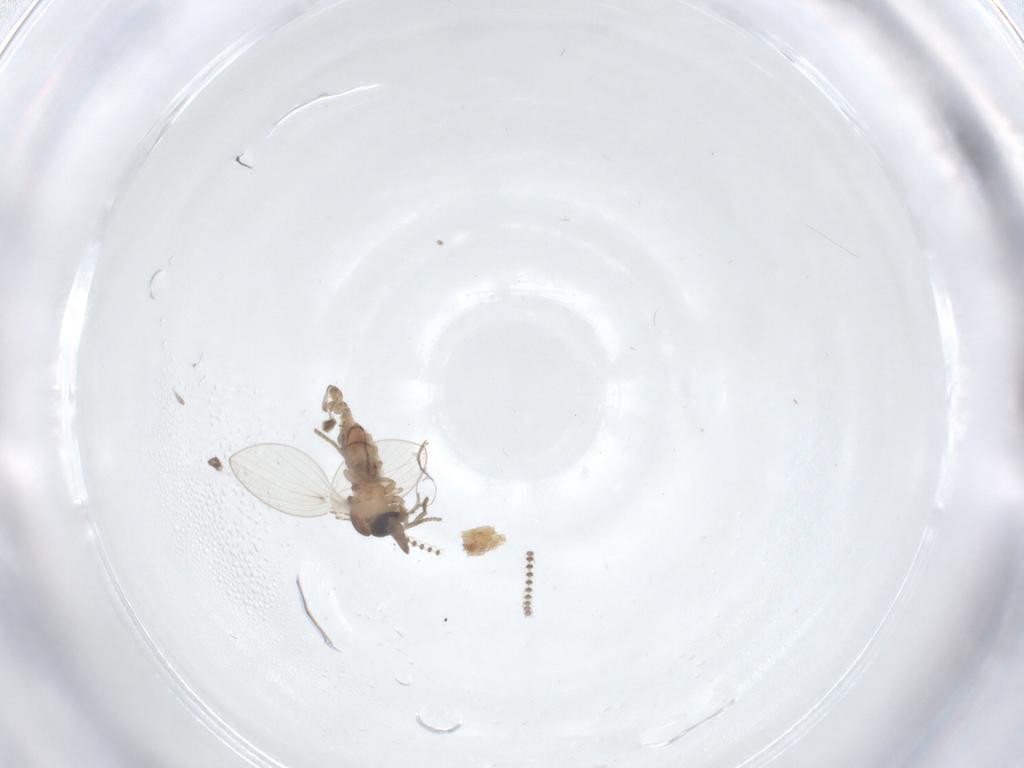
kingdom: Animalia
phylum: Arthropoda
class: Insecta
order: Diptera
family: Psychodidae
